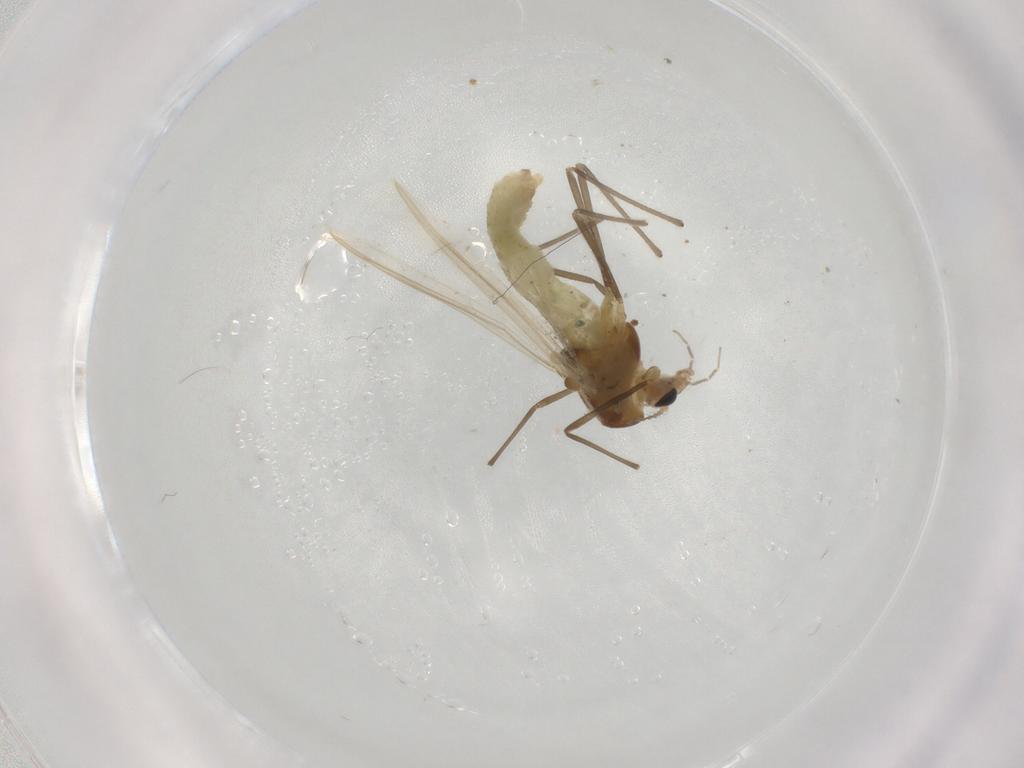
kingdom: Animalia
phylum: Arthropoda
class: Insecta
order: Diptera
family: Chironomidae
